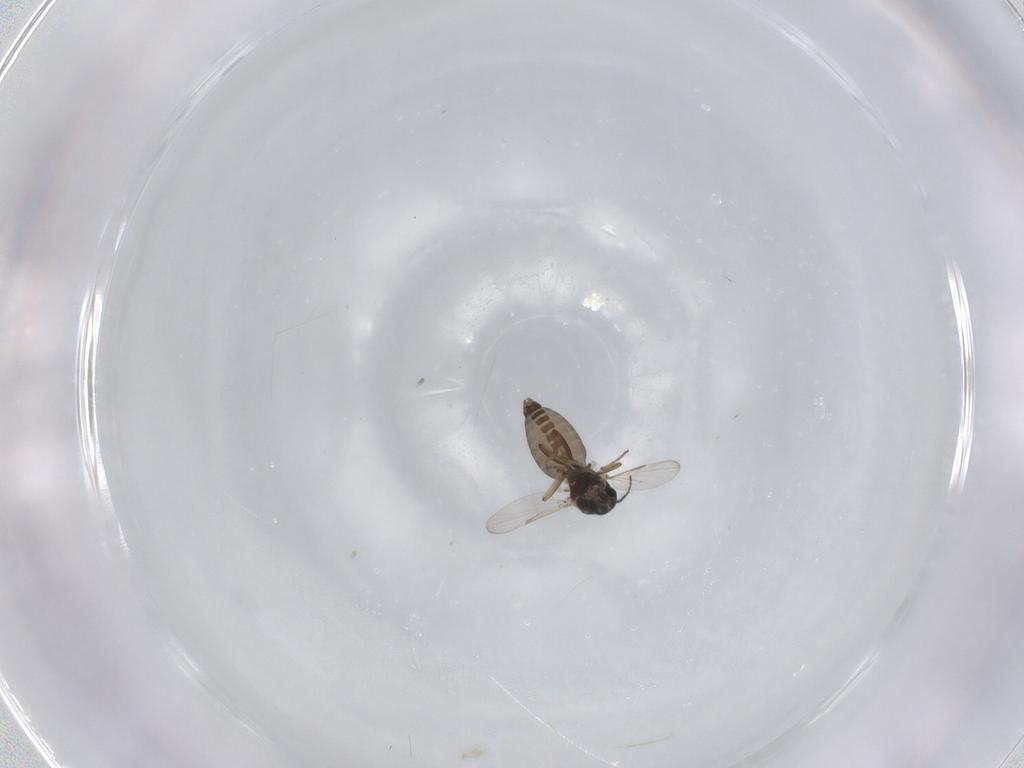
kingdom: Animalia
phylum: Arthropoda
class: Insecta
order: Diptera
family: Ceratopogonidae
